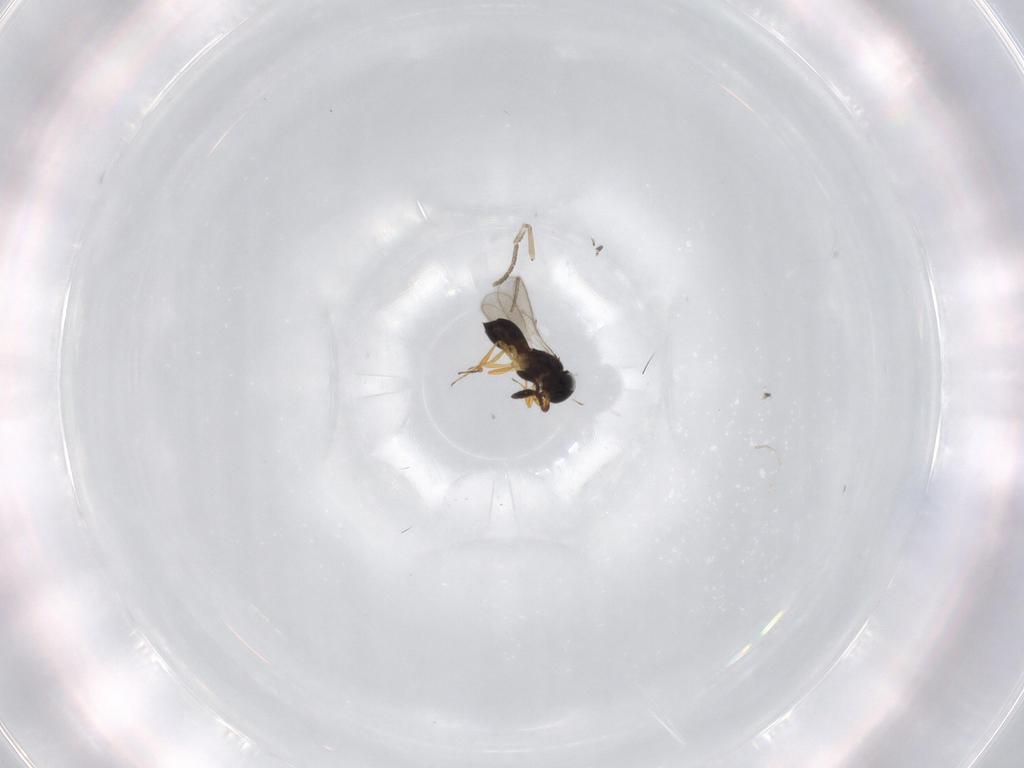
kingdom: Animalia
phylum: Arthropoda
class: Insecta
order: Hymenoptera
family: Scelionidae
